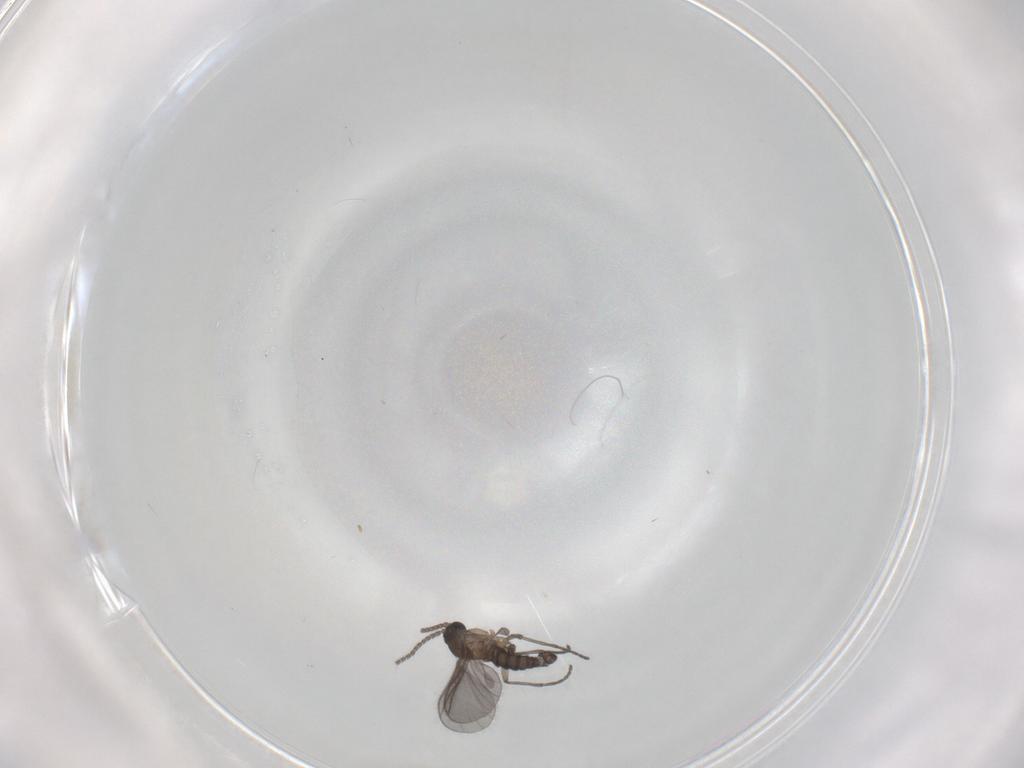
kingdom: Animalia
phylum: Arthropoda
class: Insecta
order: Diptera
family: Sciaridae
